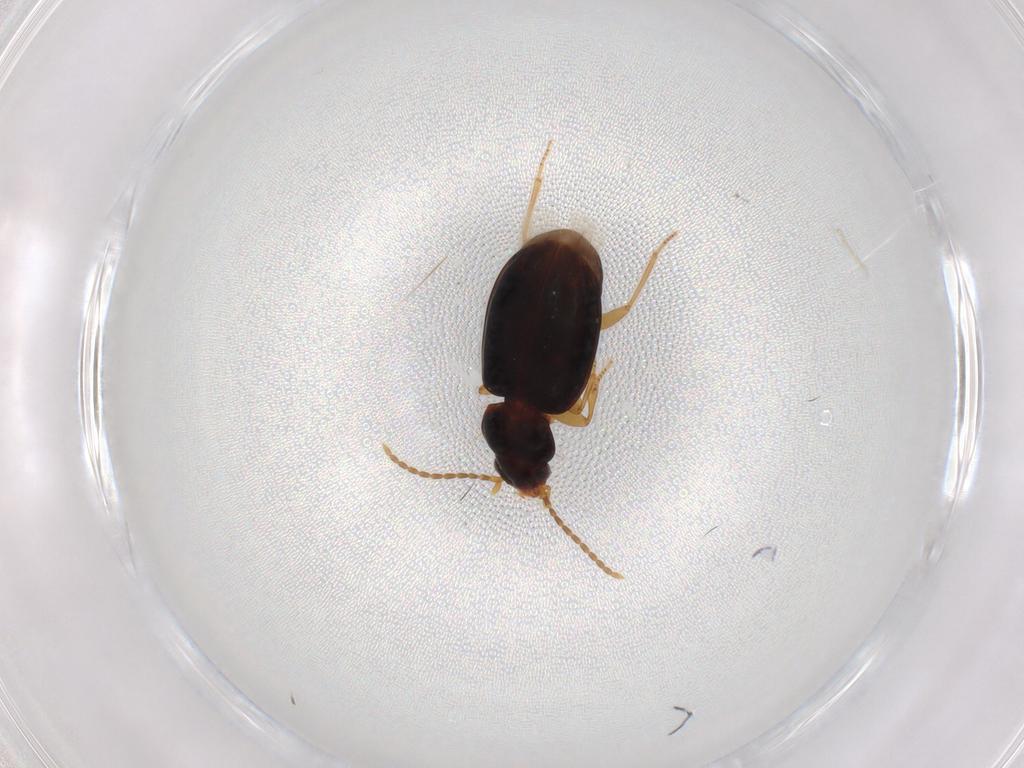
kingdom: Animalia
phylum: Arthropoda
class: Insecta
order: Coleoptera
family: Carabidae
